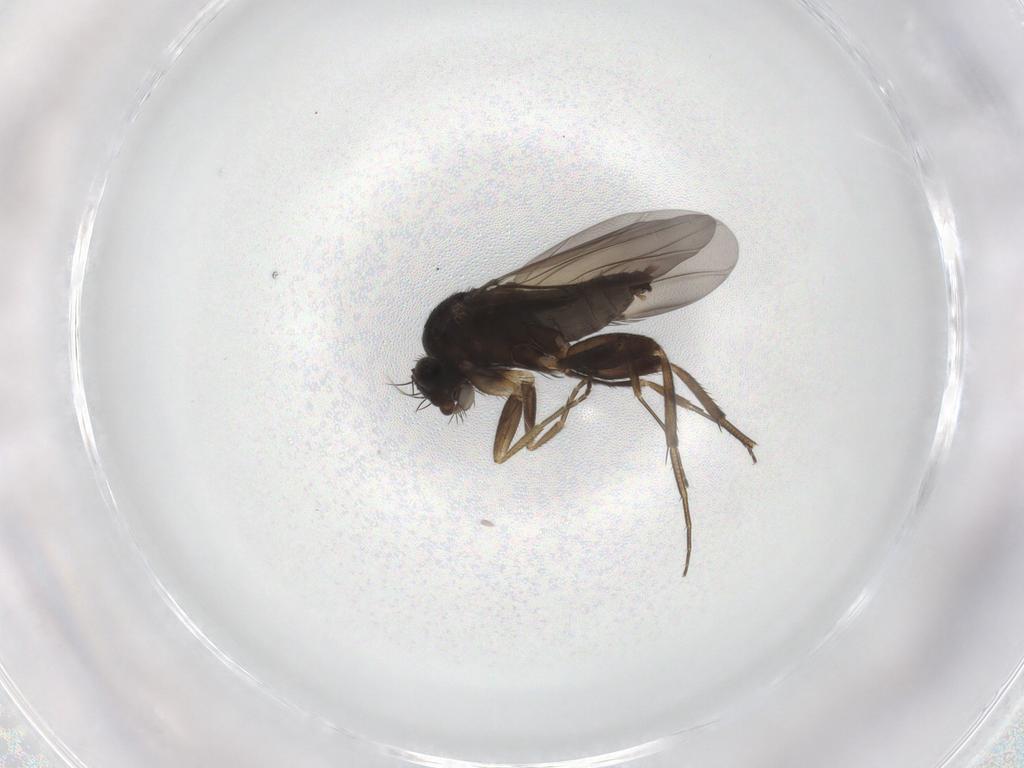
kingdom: Animalia
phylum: Arthropoda
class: Insecta
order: Diptera
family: Phoridae
